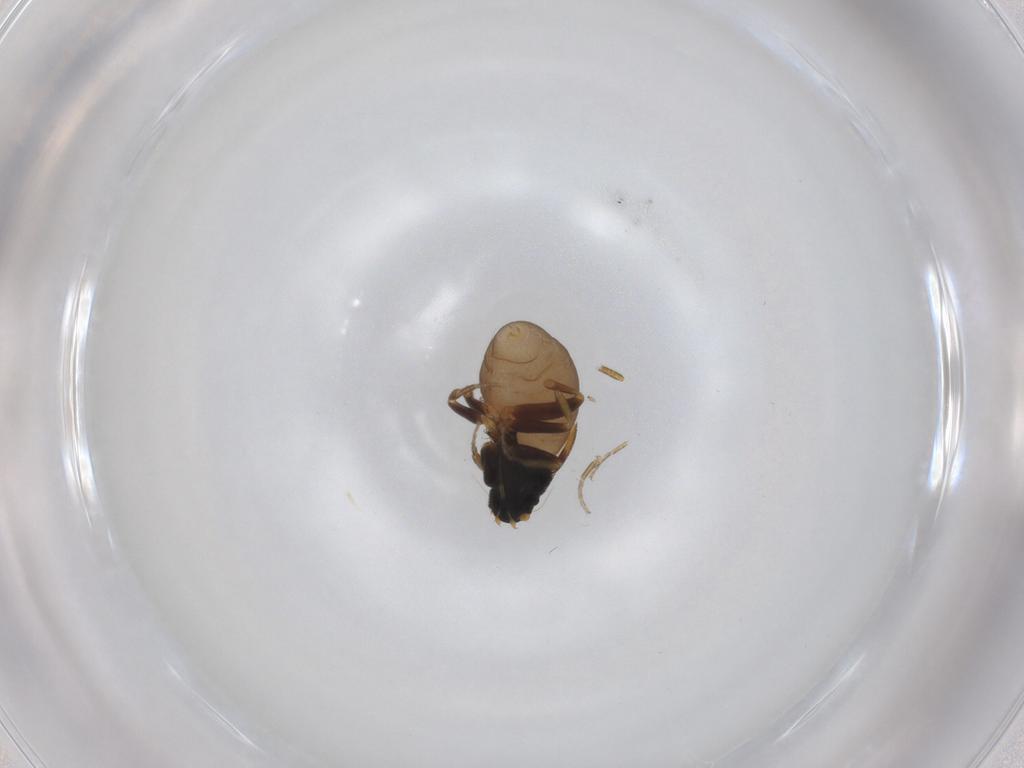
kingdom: Animalia
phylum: Arthropoda
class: Insecta
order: Diptera
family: Phoridae
